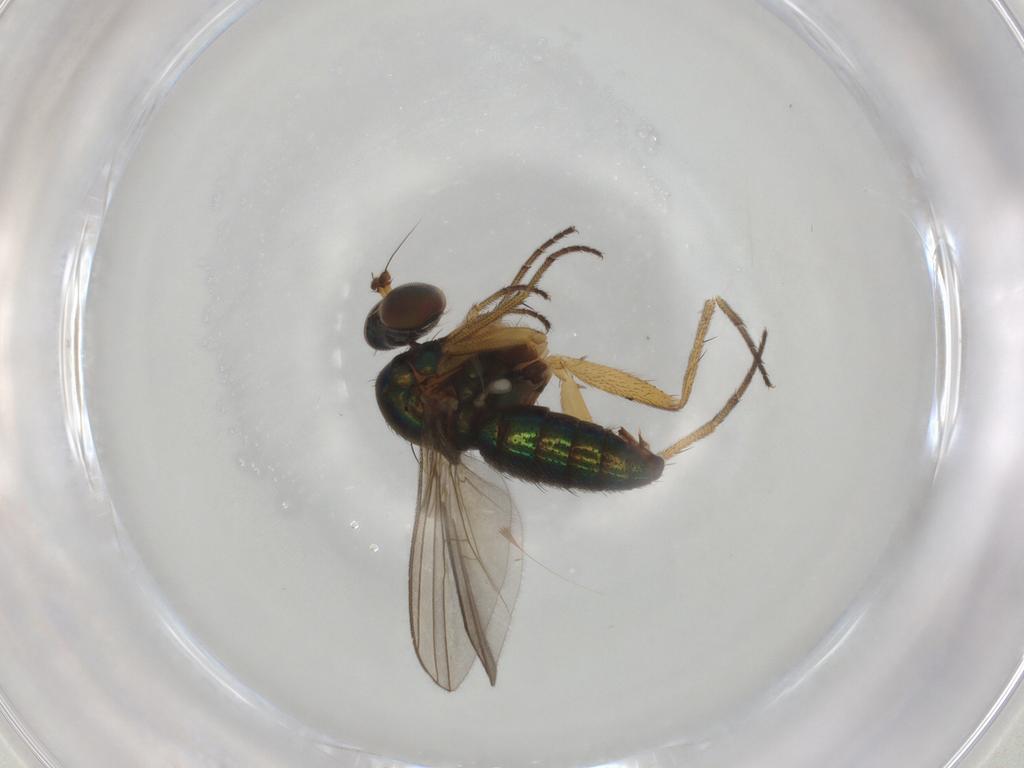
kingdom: Animalia
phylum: Arthropoda
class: Insecta
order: Diptera
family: Dolichopodidae
